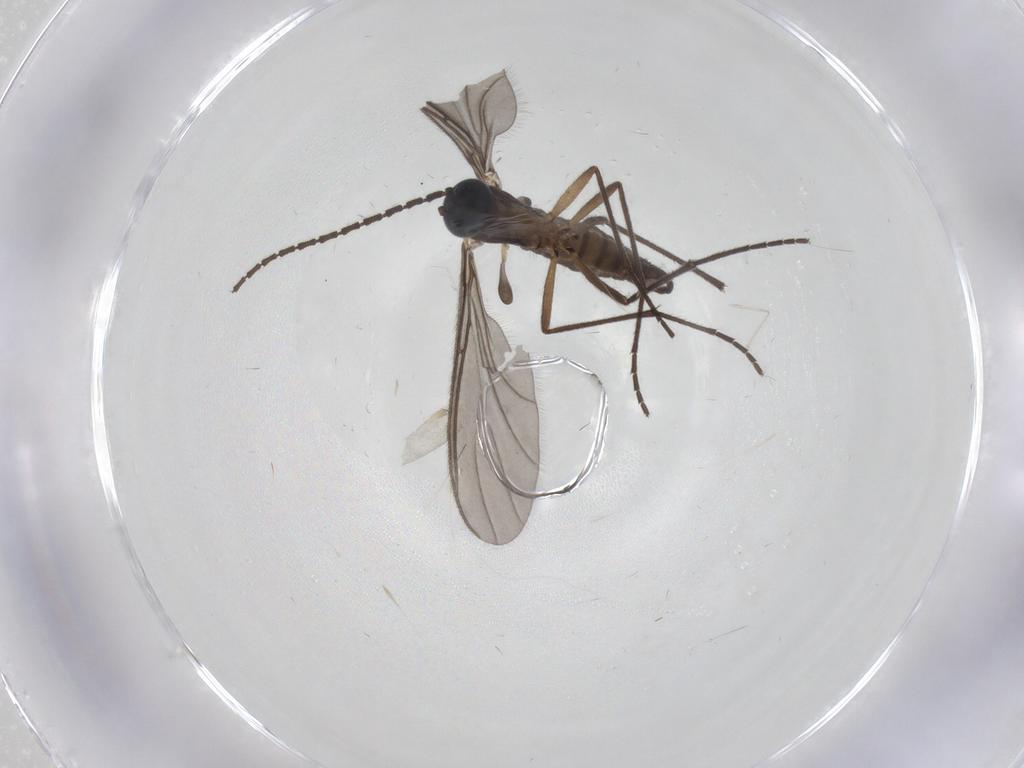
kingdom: Animalia
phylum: Arthropoda
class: Insecta
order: Diptera
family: Sciaridae
